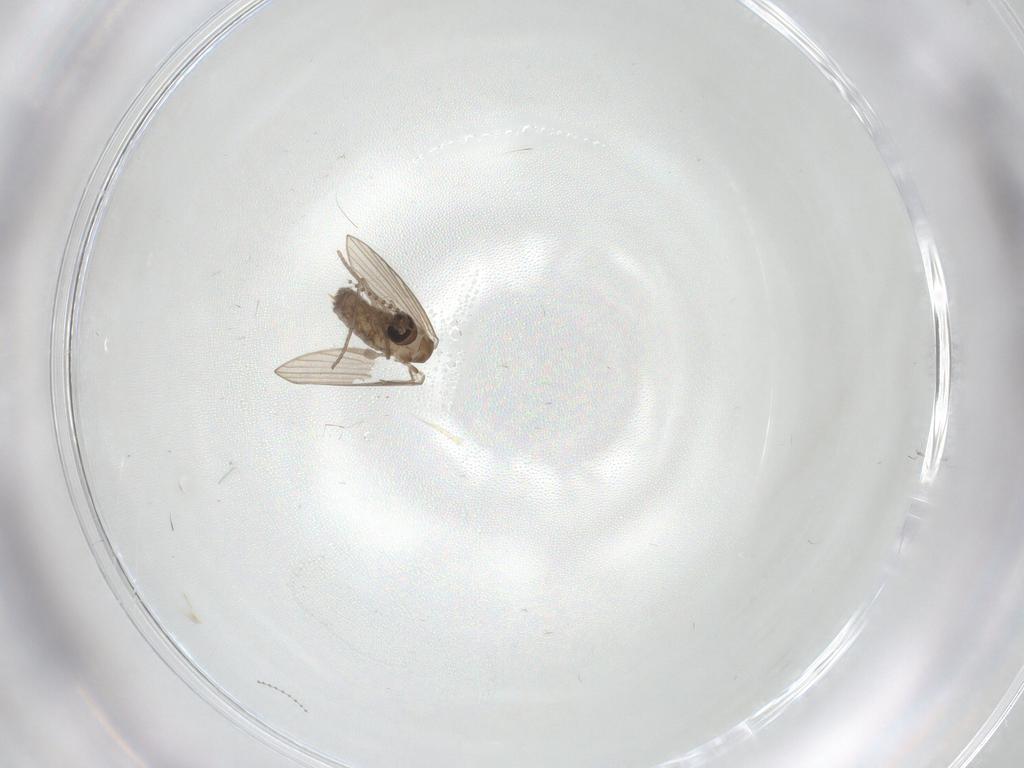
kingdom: Animalia
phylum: Arthropoda
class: Insecta
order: Diptera
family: Psychodidae
